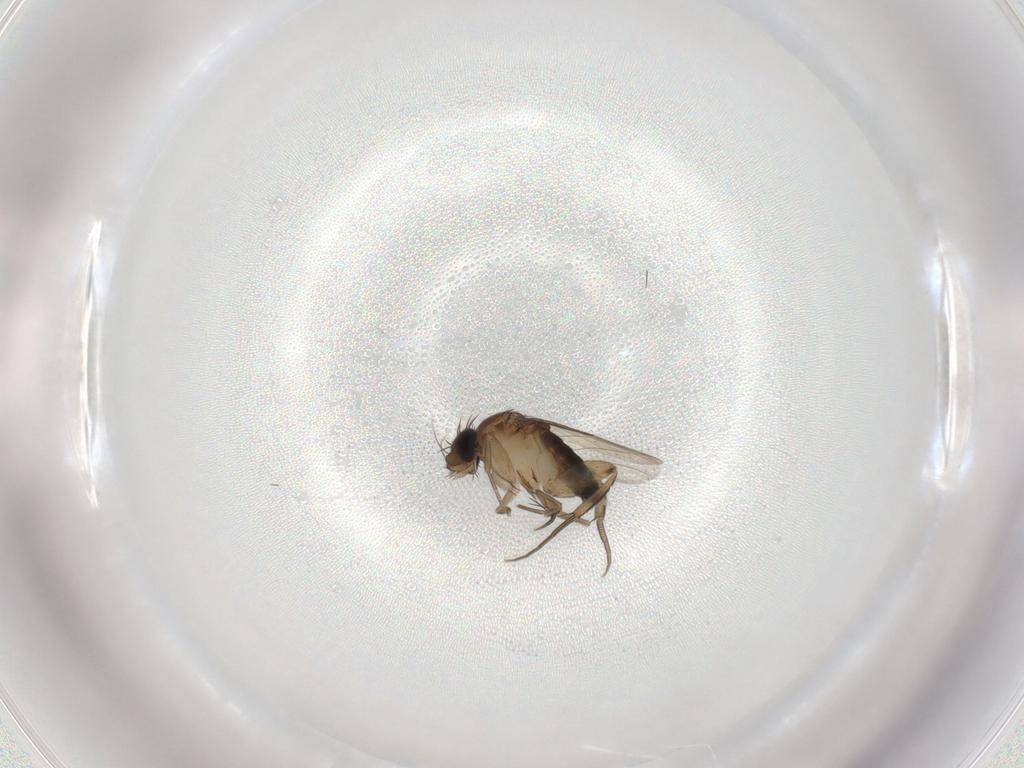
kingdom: Animalia
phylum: Arthropoda
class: Insecta
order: Diptera
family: Phoridae
